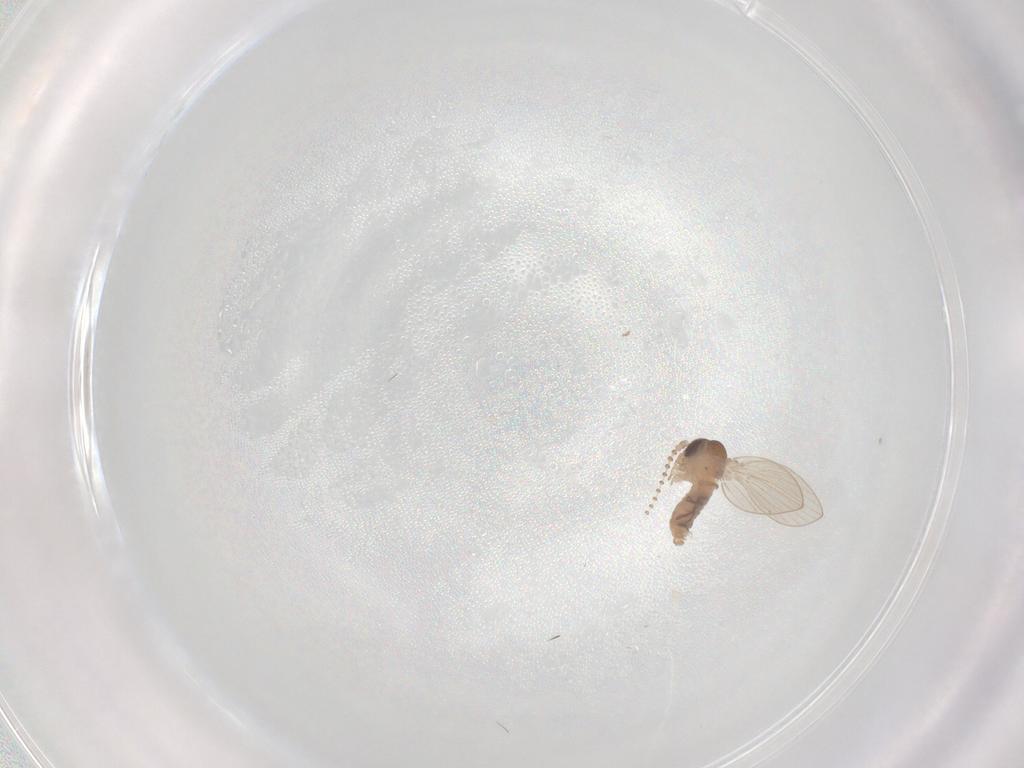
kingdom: Animalia
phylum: Arthropoda
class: Insecta
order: Diptera
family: Psychodidae
